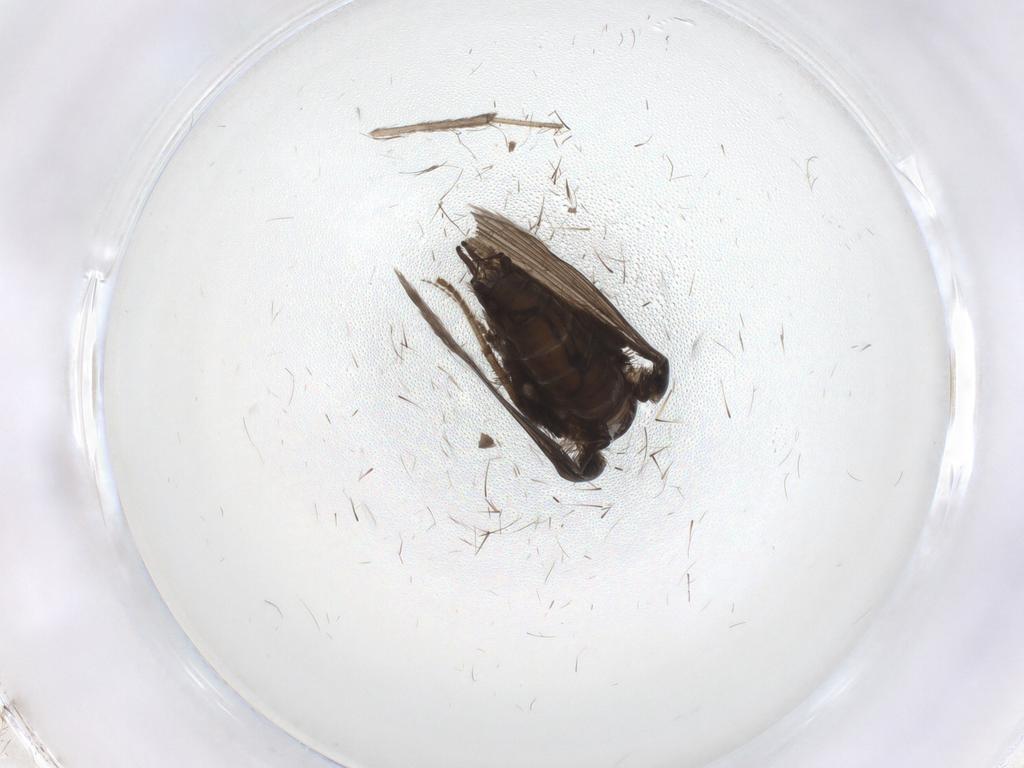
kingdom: Animalia
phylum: Arthropoda
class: Insecta
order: Diptera
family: Psychodidae
